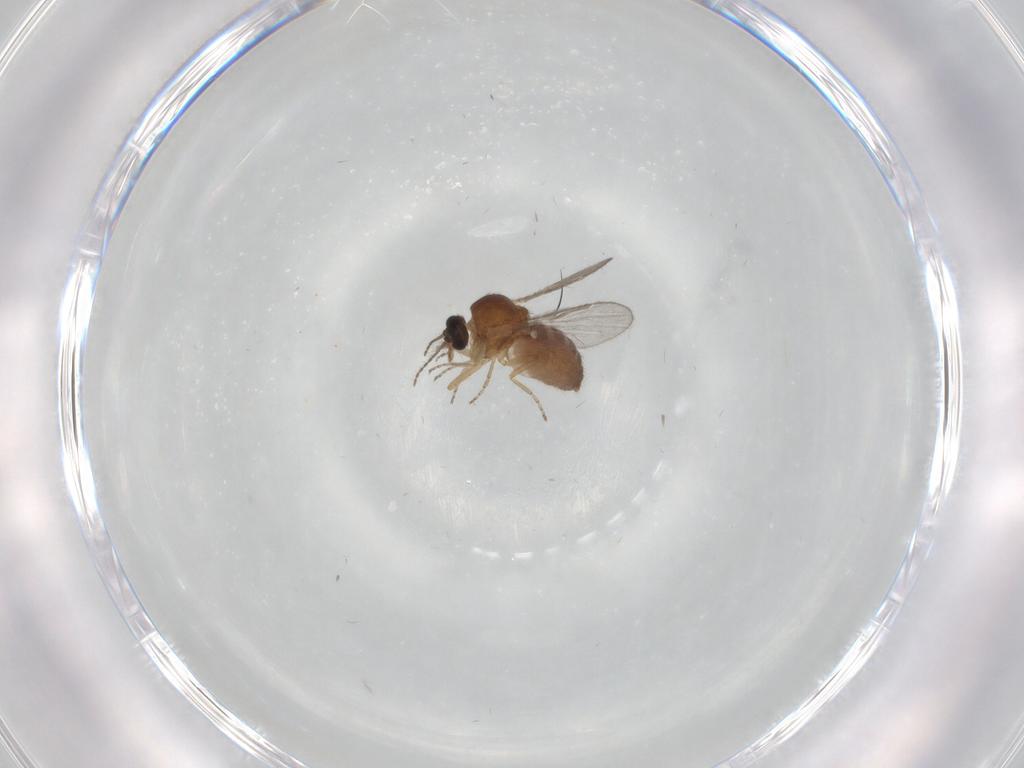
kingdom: Animalia
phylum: Arthropoda
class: Insecta
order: Diptera
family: Ceratopogonidae
